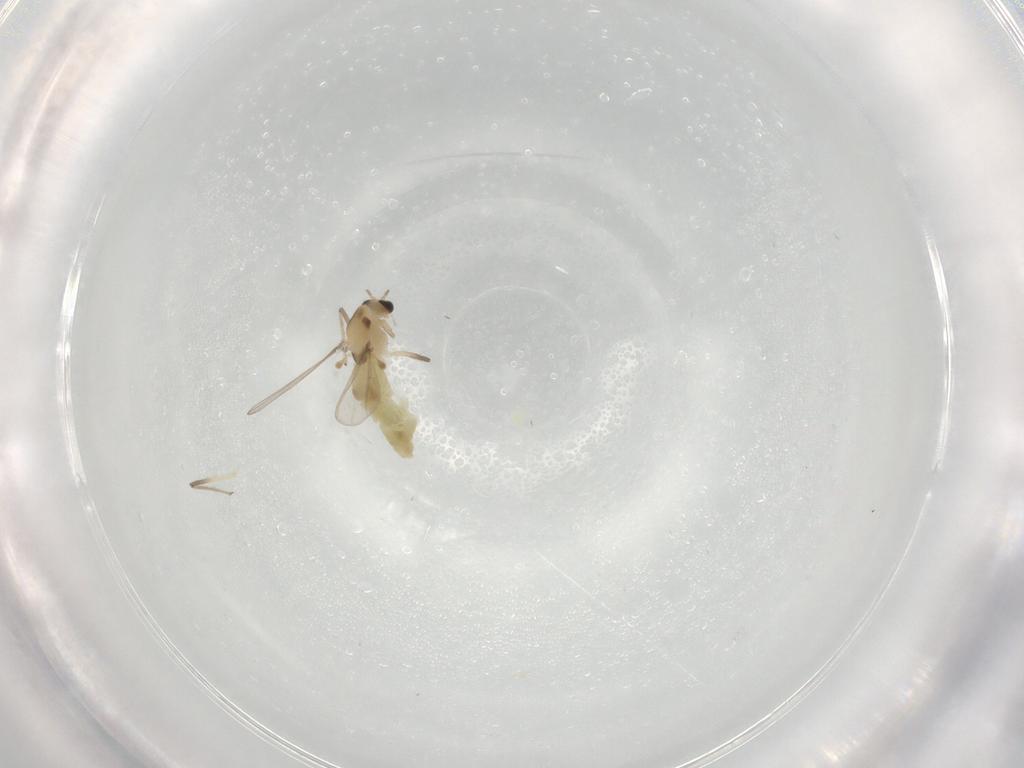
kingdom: Animalia
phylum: Arthropoda
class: Insecta
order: Diptera
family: Chironomidae
